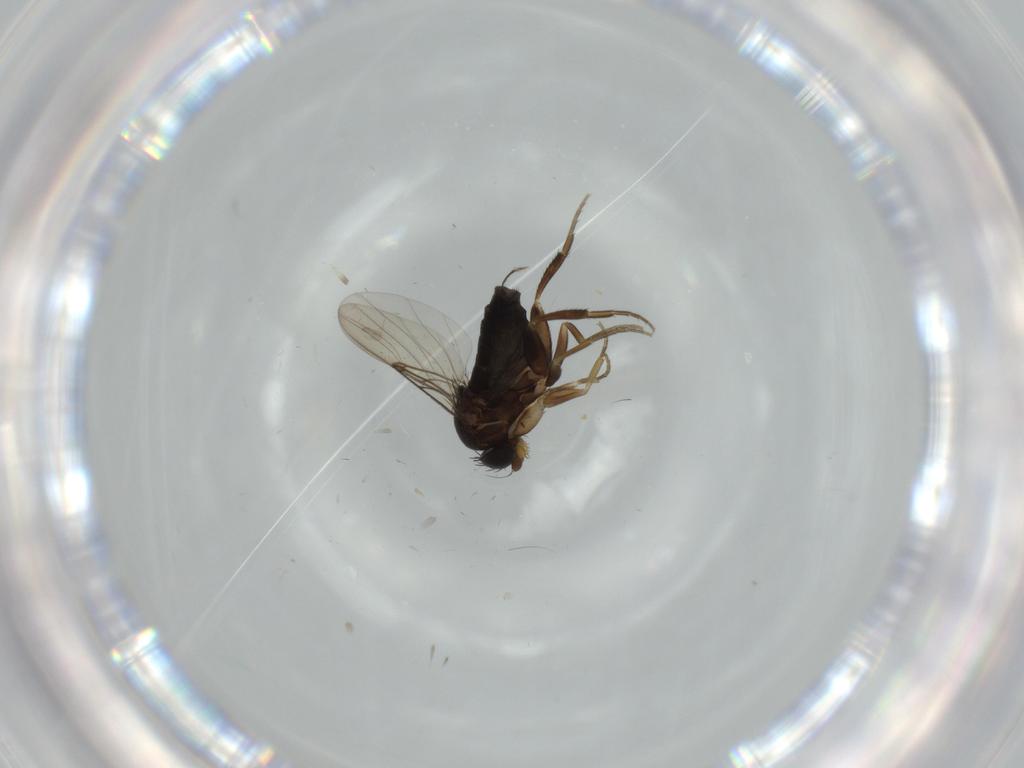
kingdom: Animalia
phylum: Arthropoda
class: Insecta
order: Diptera
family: Phoridae
